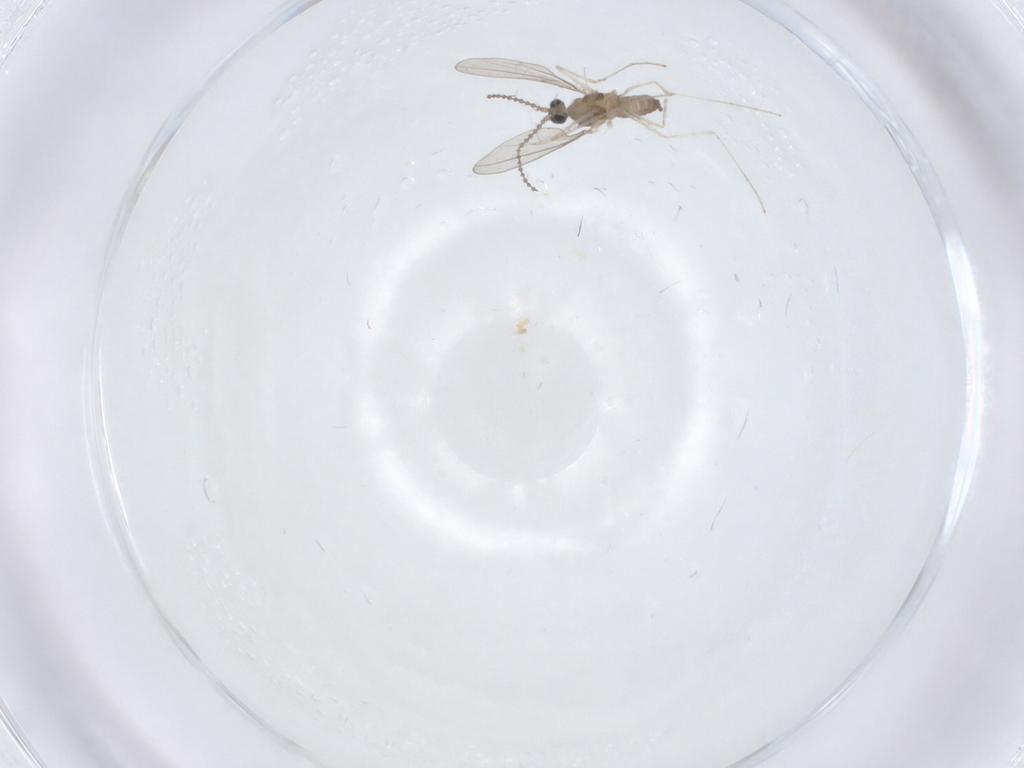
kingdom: Animalia
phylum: Arthropoda
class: Insecta
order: Diptera
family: Cecidomyiidae
